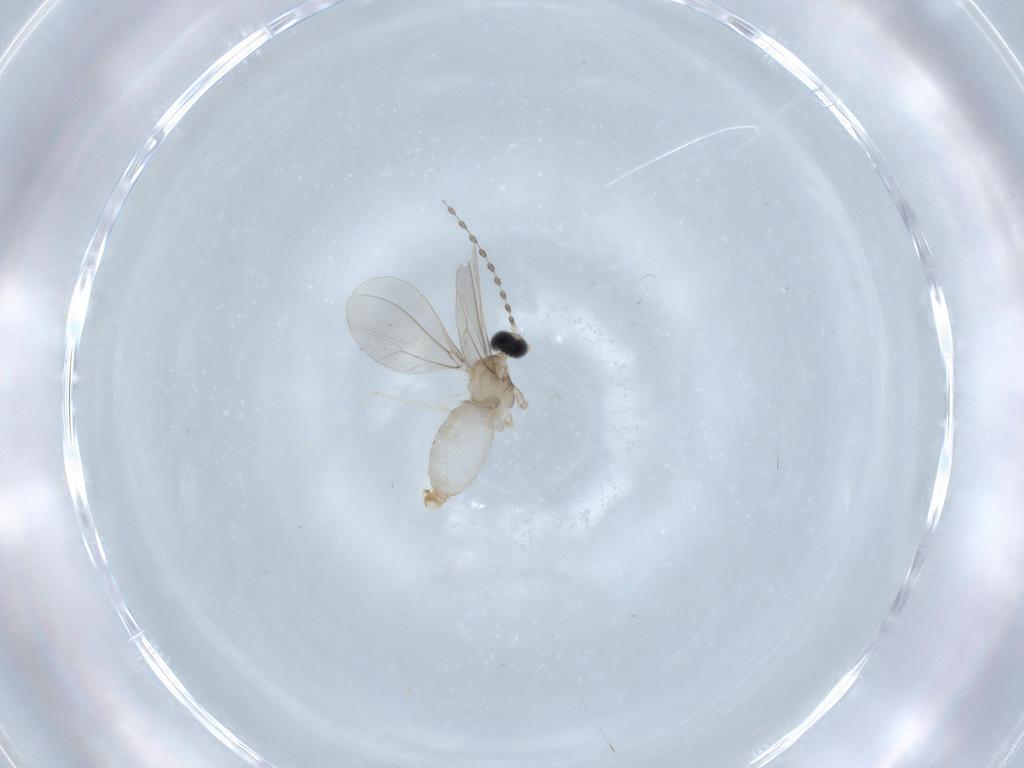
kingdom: Animalia
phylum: Arthropoda
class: Insecta
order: Diptera
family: Cecidomyiidae
